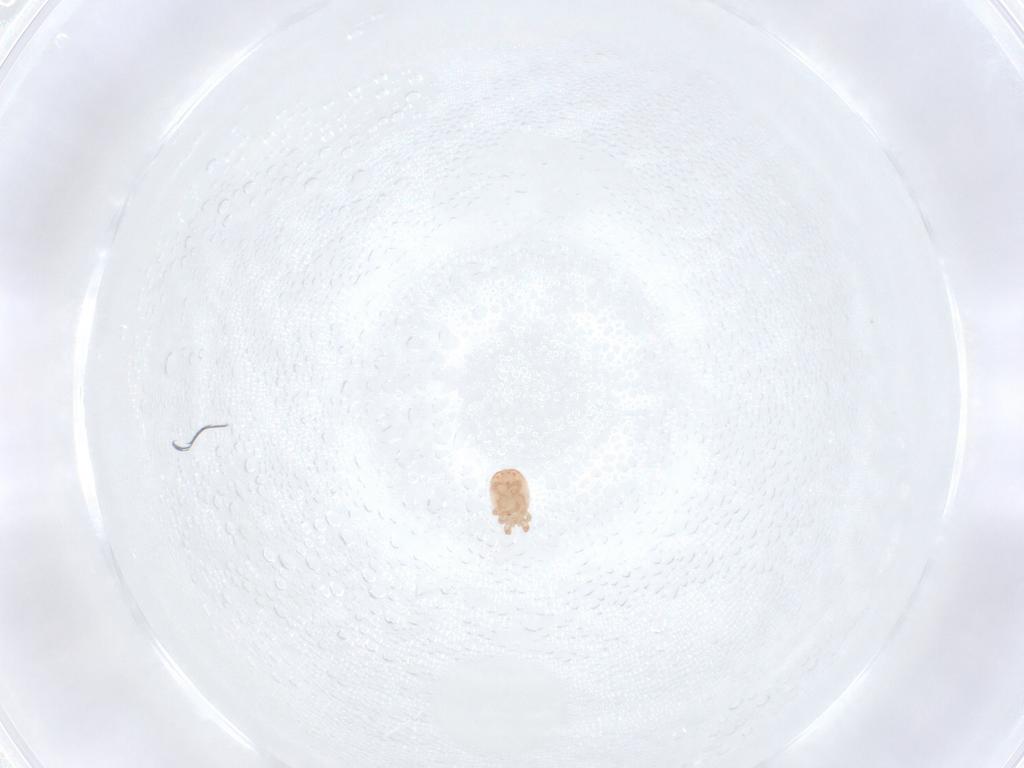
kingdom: Animalia
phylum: Arthropoda
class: Arachnida
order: Mesostigmata
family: Zerconidae
